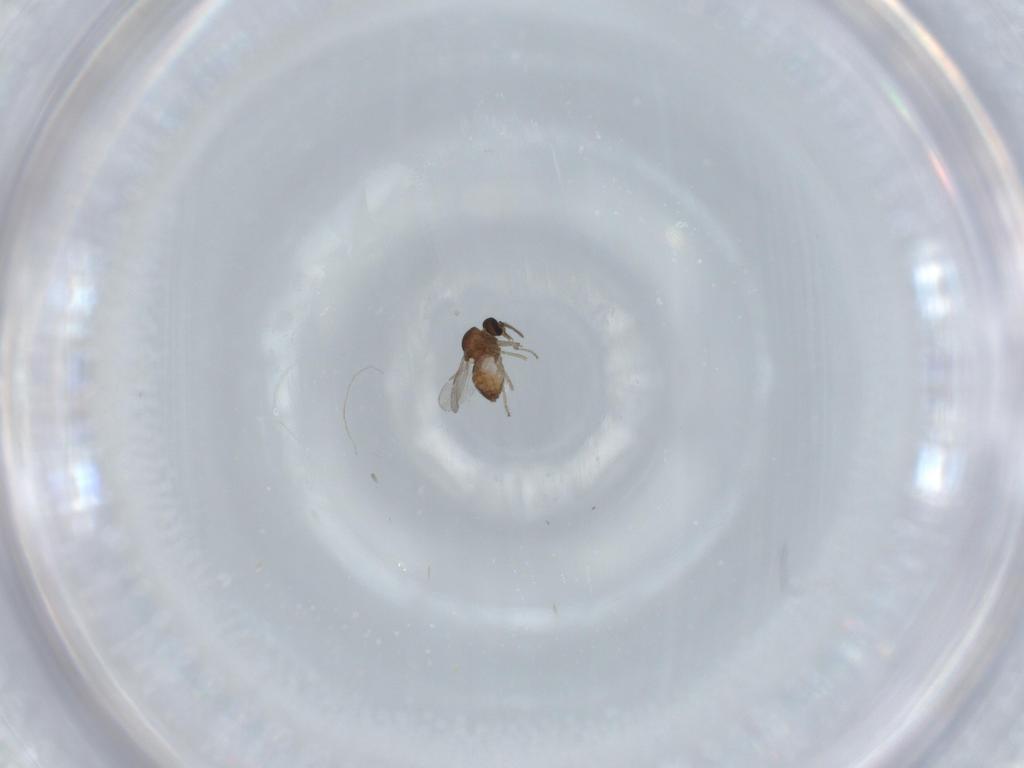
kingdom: Animalia
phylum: Arthropoda
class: Insecta
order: Diptera
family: Ceratopogonidae
